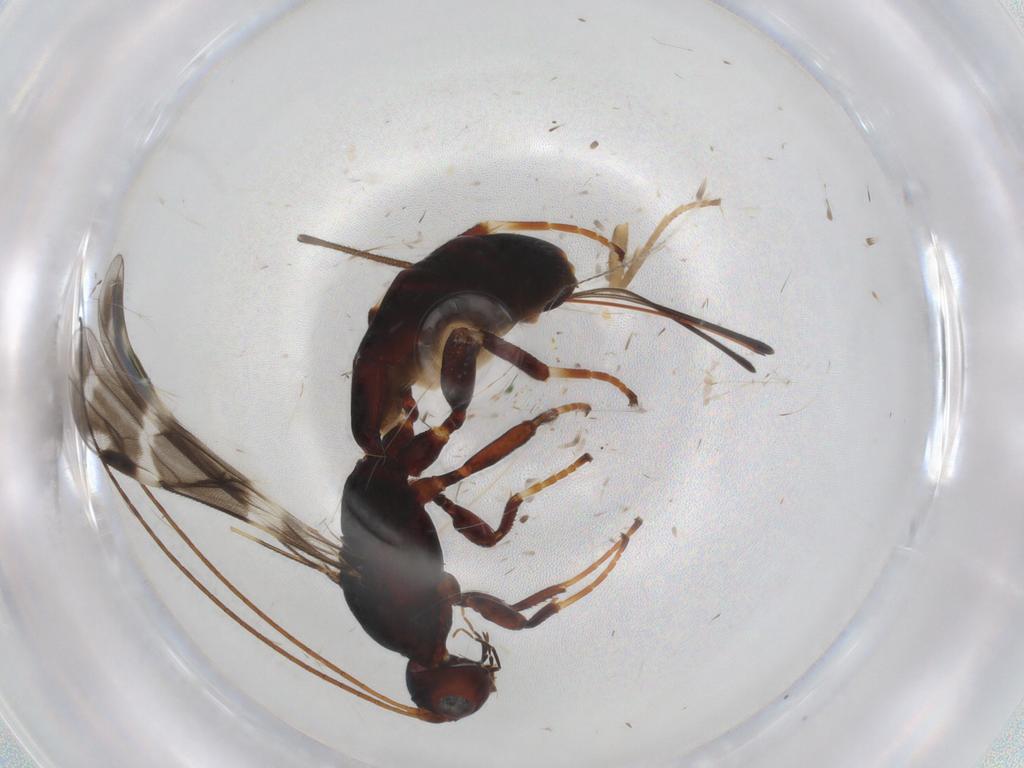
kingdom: Animalia
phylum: Arthropoda
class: Insecta
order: Hymenoptera
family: Braconidae
